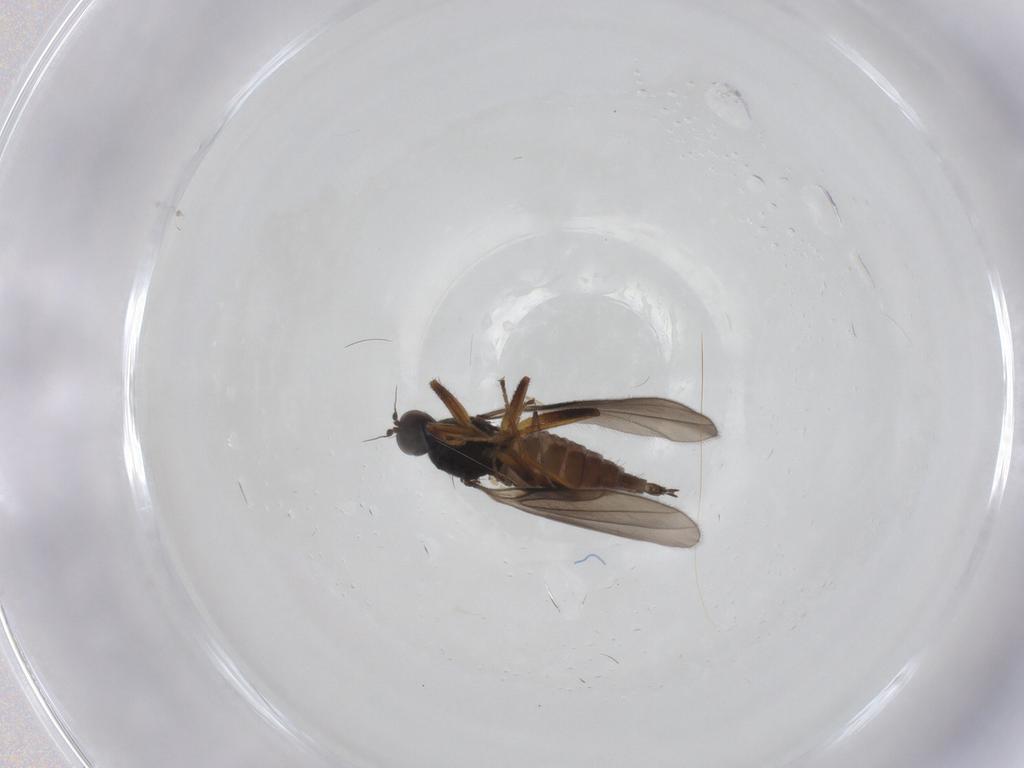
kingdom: Animalia
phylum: Arthropoda
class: Insecta
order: Diptera
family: Hybotidae
